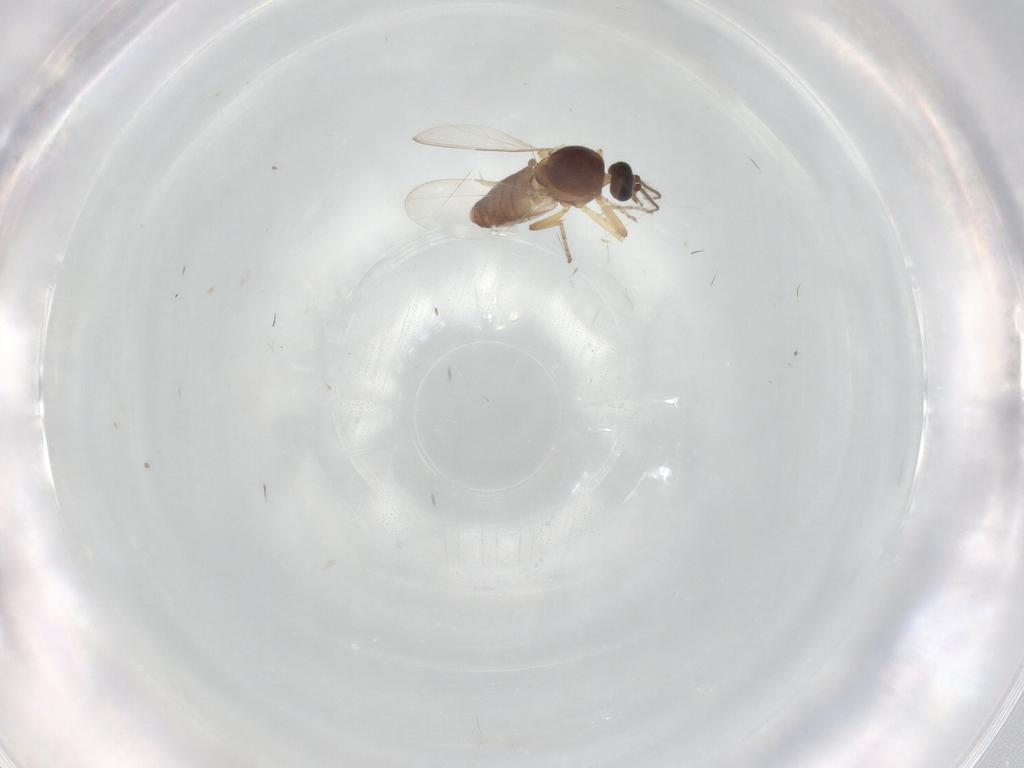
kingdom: Animalia
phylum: Arthropoda
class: Insecta
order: Diptera
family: Ceratopogonidae
